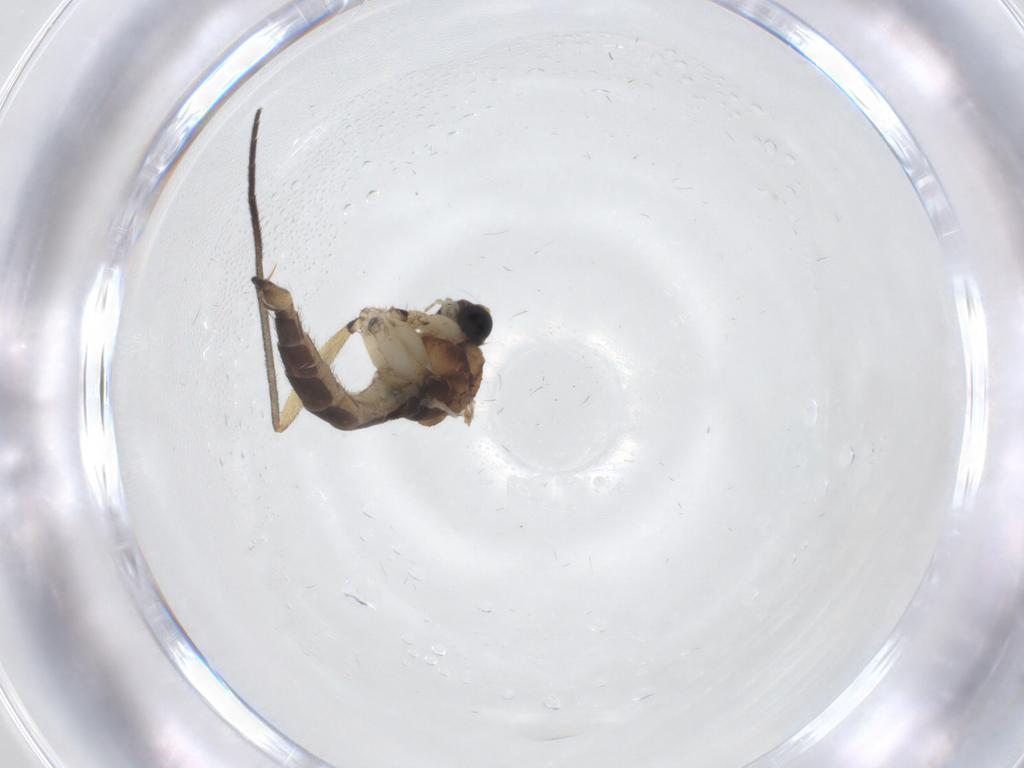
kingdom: Animalia
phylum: Arthropoda
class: Insecta
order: Diptera
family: Sciaridae
